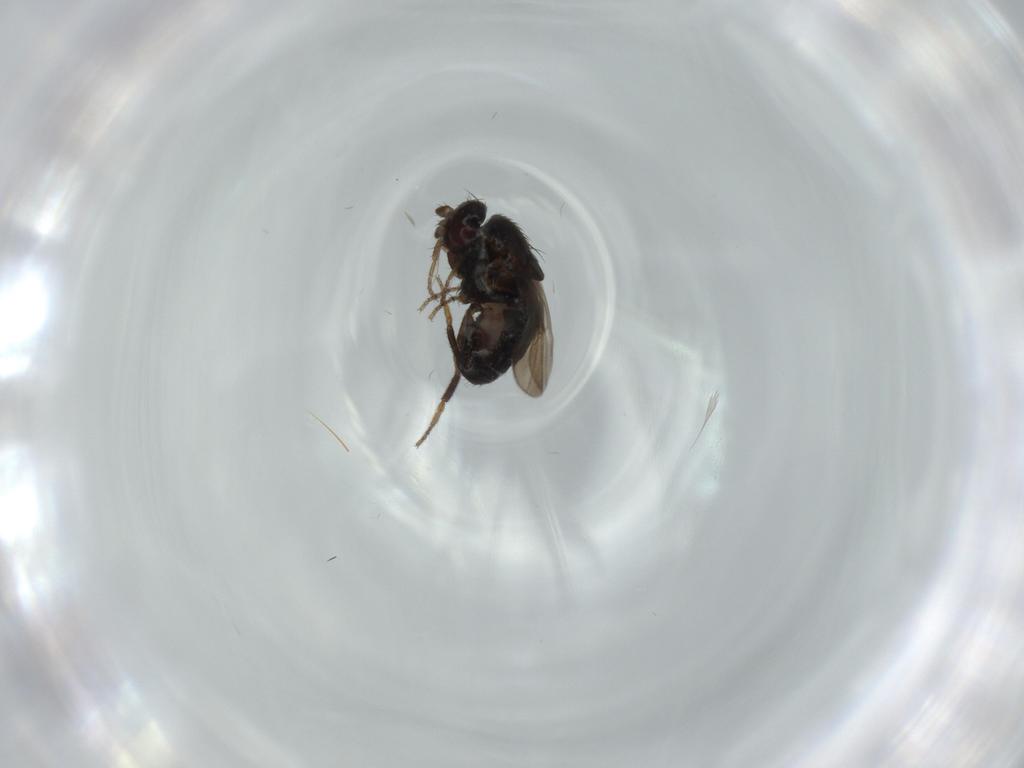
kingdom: Animalia
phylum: Arthropoda
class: Insecta
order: Diptera
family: Sphaeroceridae
